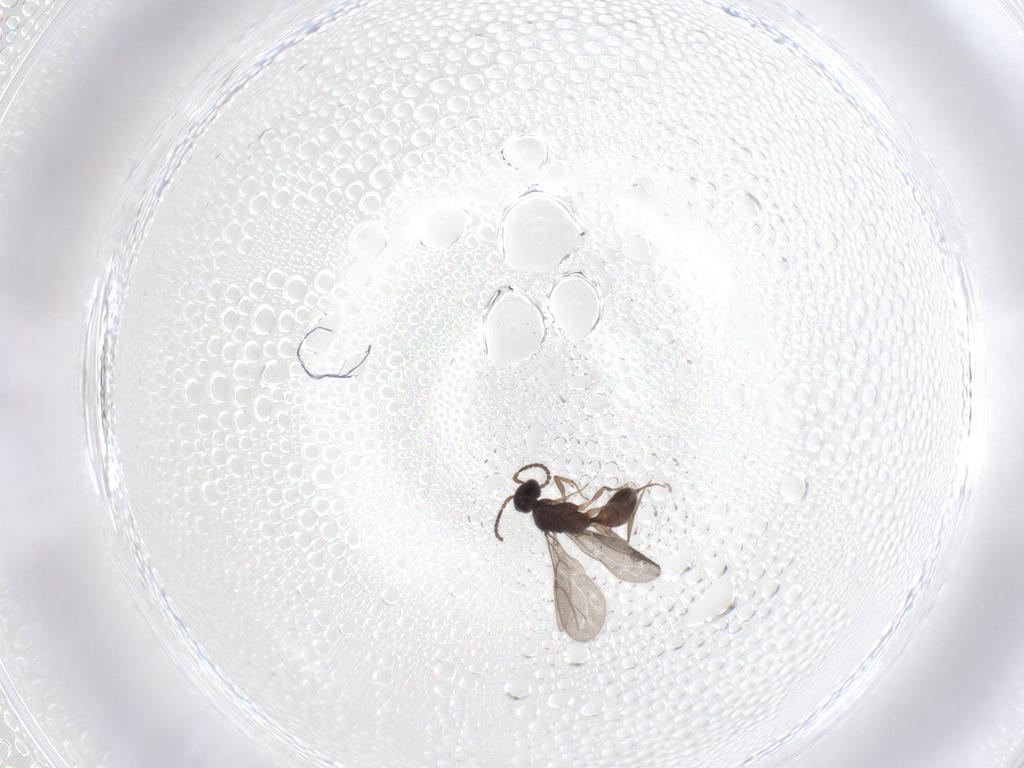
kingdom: Animalia
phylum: Arthropoda
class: Insecta
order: Hymenoptera
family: Bethylidae
